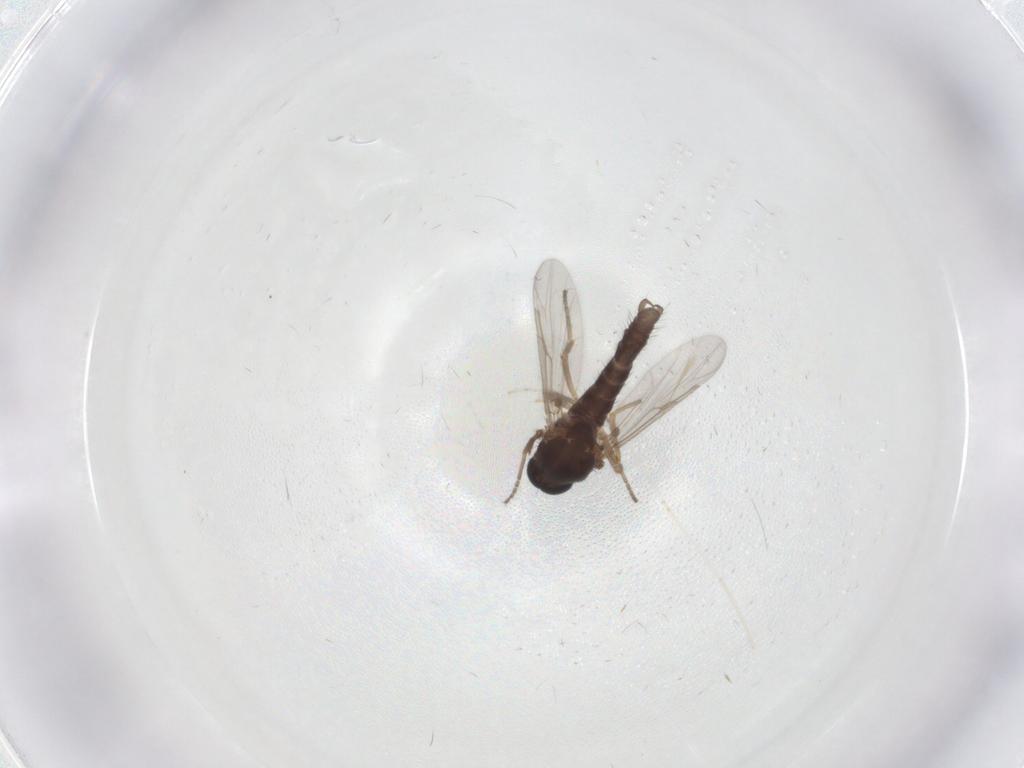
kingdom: Animalia
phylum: Arthropoda
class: Insecta
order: Diptera
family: Ceratopogonidae
